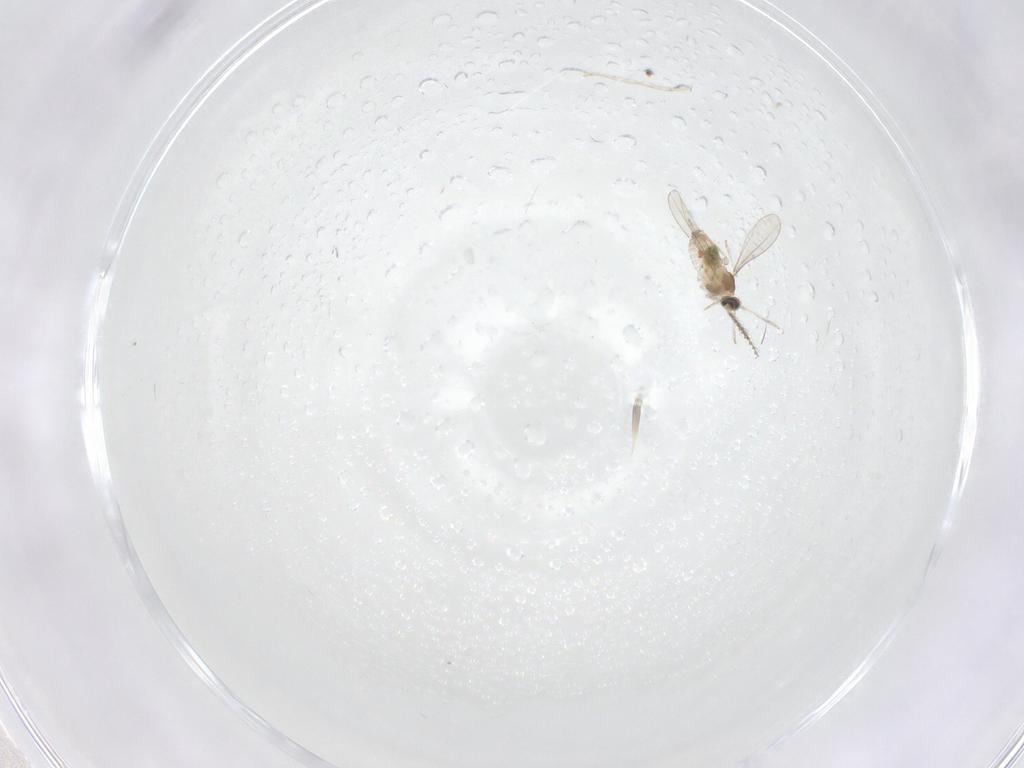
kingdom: Animalia
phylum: Arthropoda
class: Insecta
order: Diptera
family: Cecidomyiidae
